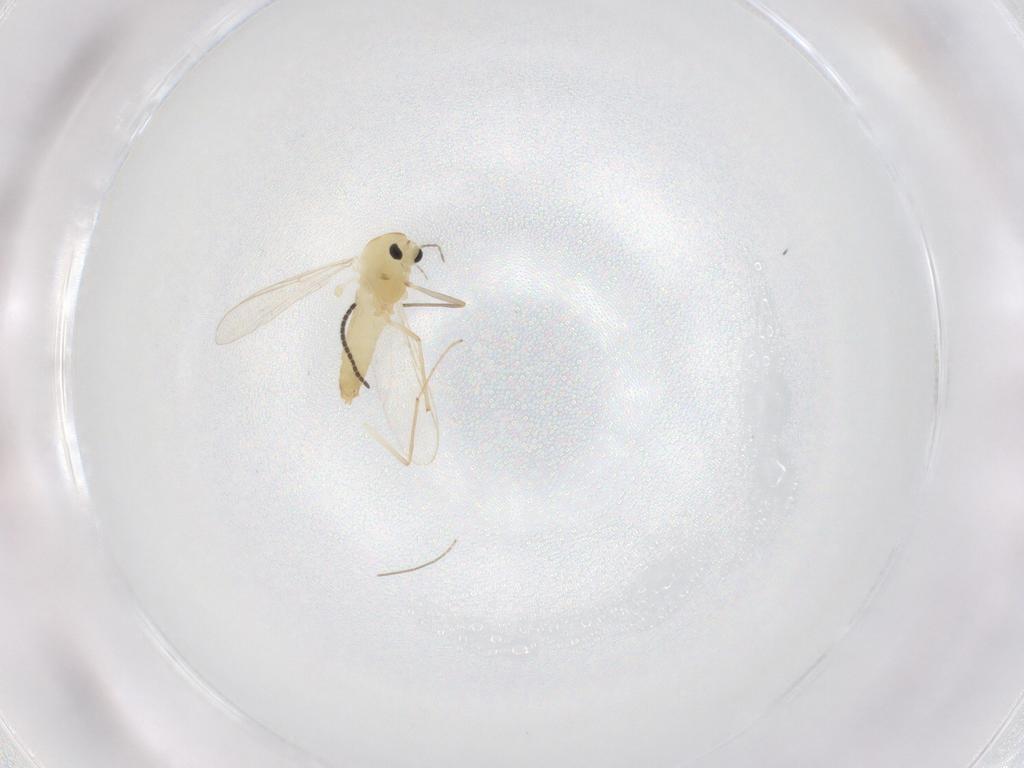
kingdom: Animalia
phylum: Arthropoda
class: Insecta
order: Diptera
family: Chironomidae
